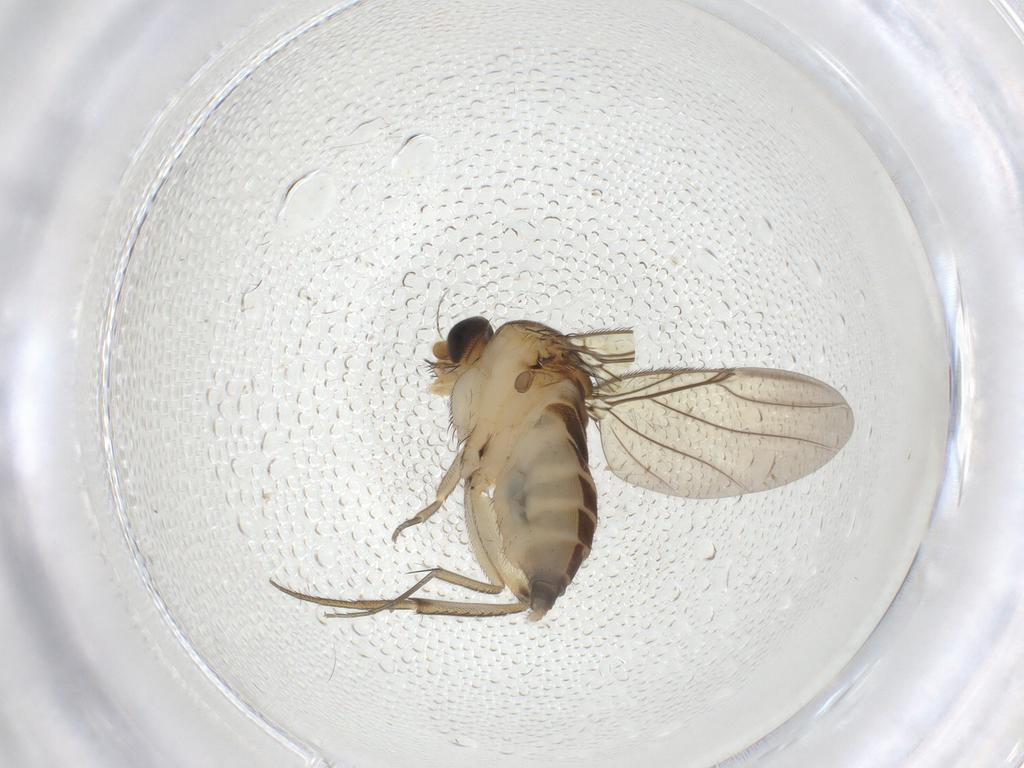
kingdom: Animalia
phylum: Arthropoda
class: Insecta
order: Diptera
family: Phoridae
